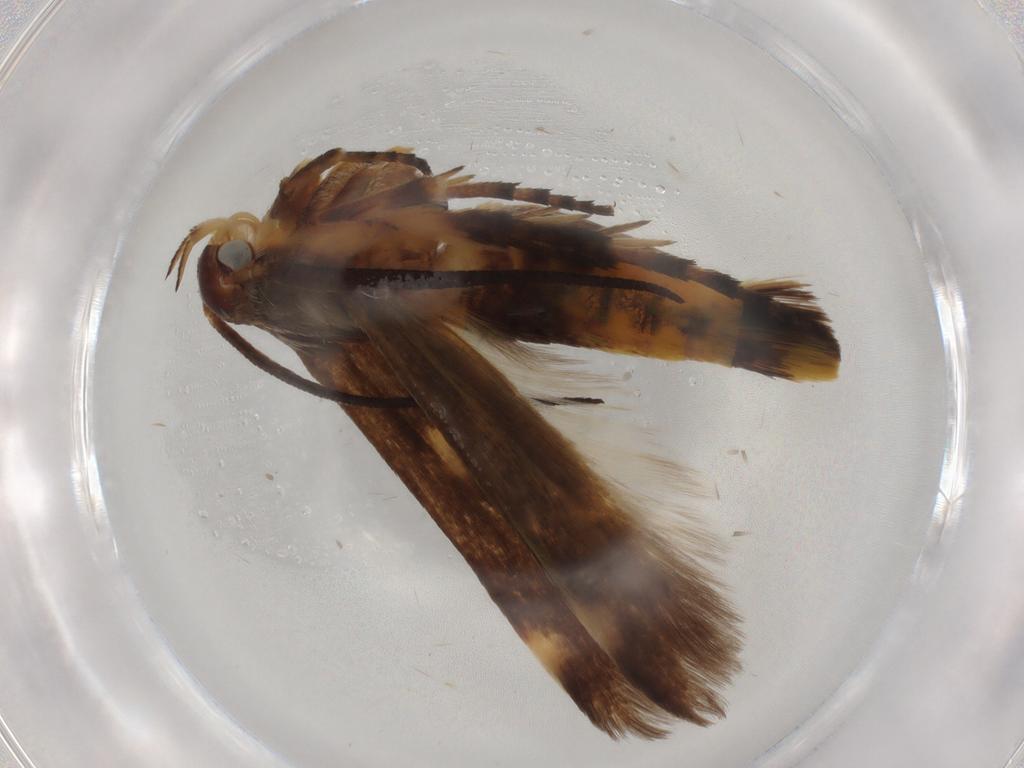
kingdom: Animalia
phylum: Arthropoda
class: Insecta
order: Lepidoptera
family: Scythrididae
